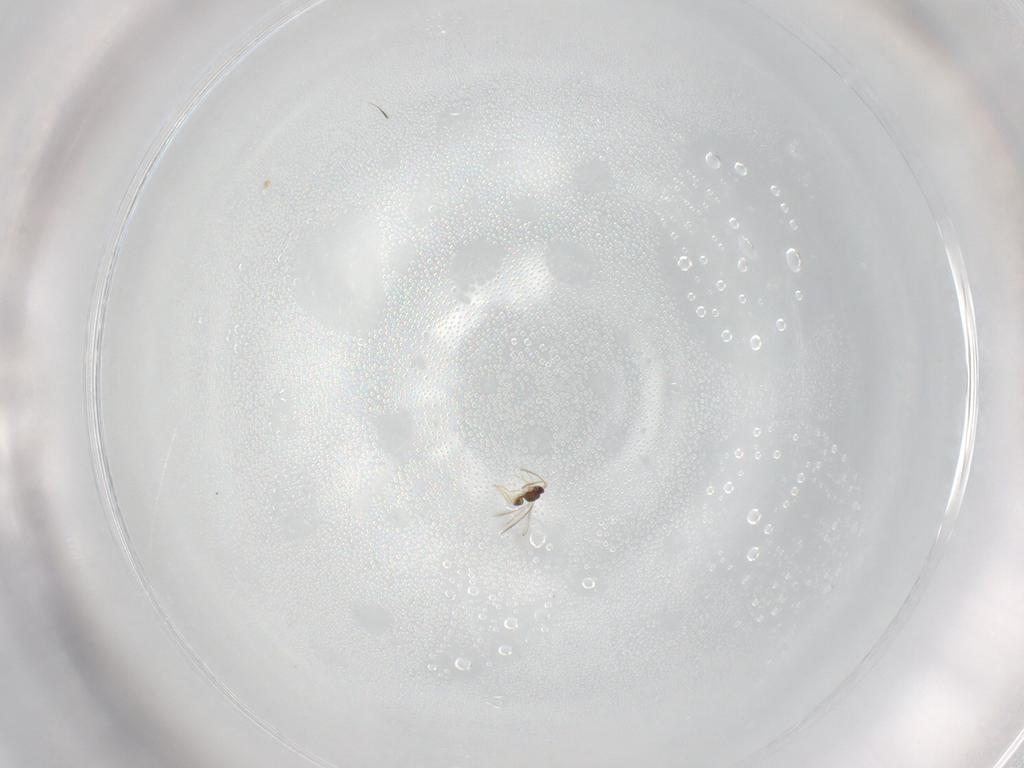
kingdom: Animalia
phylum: Arthropoda
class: Insecta
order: Hymenoptera
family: Mymaridae
